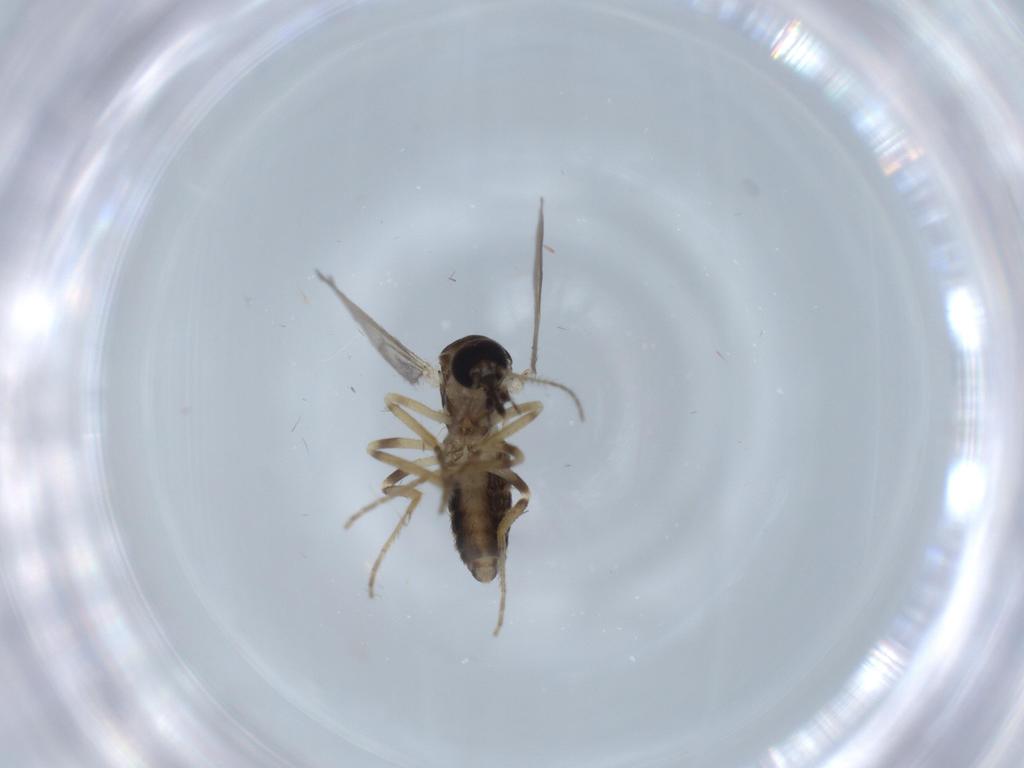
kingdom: Animalia
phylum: Arthropoda
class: Insecta
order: Diptera
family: Ceratopogonidae
